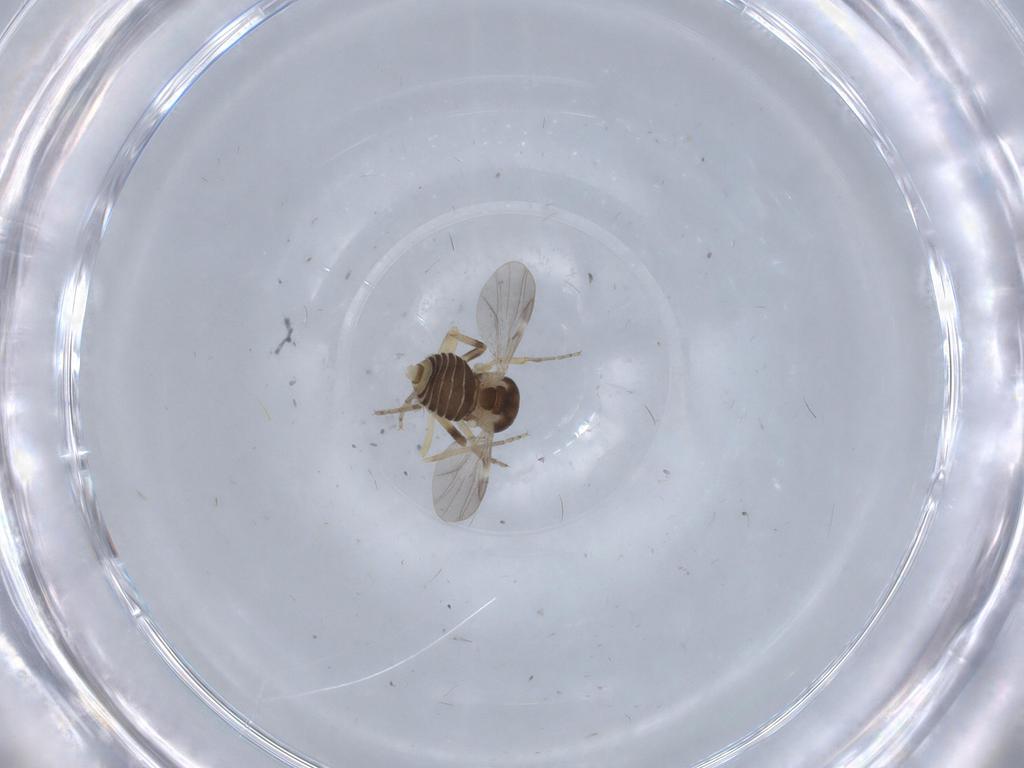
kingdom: Animalia
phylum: Arthropoda
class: Insecta
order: Diptera
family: Ceratopogonidae
